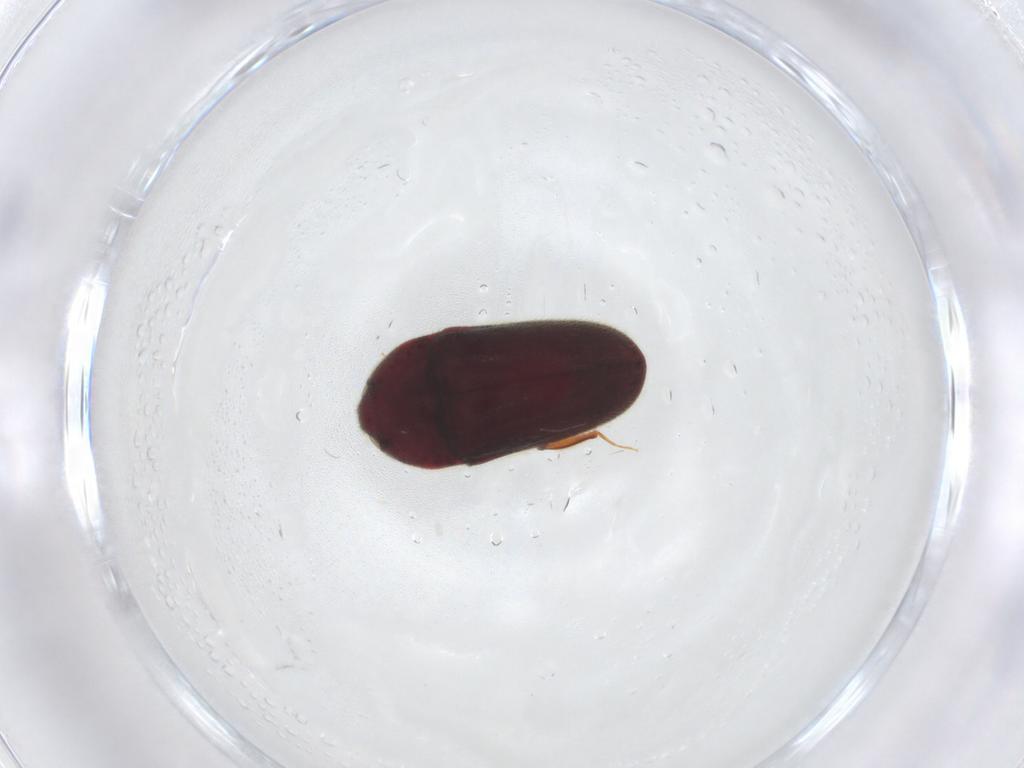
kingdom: Animalia
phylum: Arthropoda
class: Insecta
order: Coleoptera
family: Throscidae
